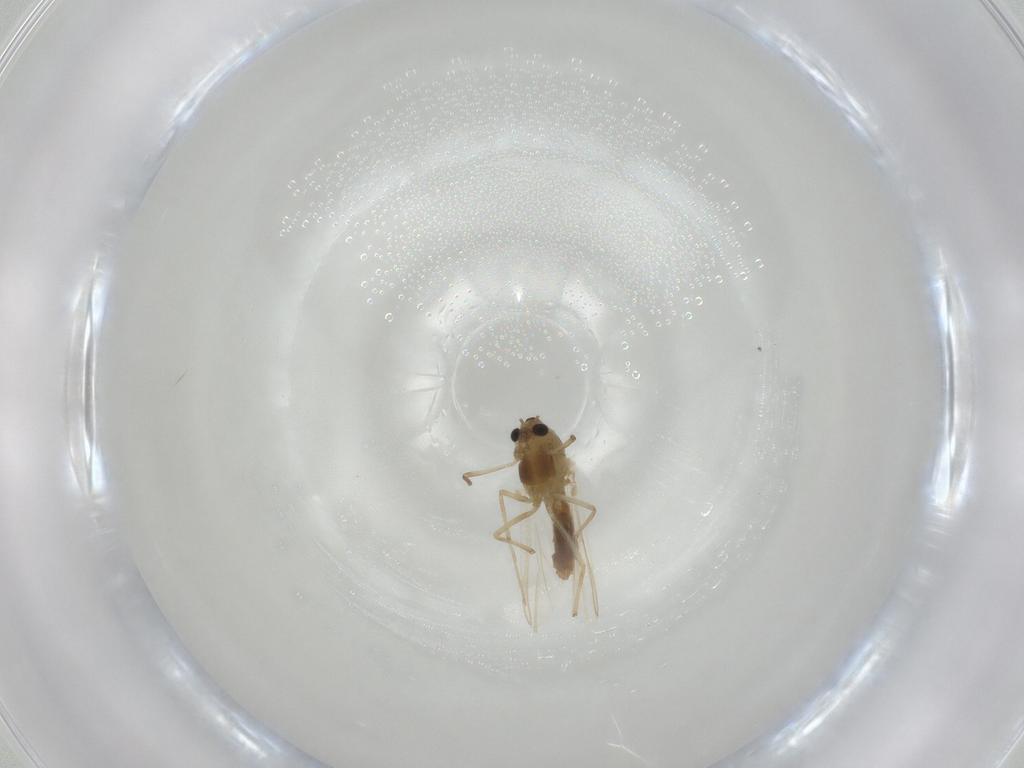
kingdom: Animalia
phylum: Arthropoda
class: Insecta
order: Diptera
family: Chironomidae
